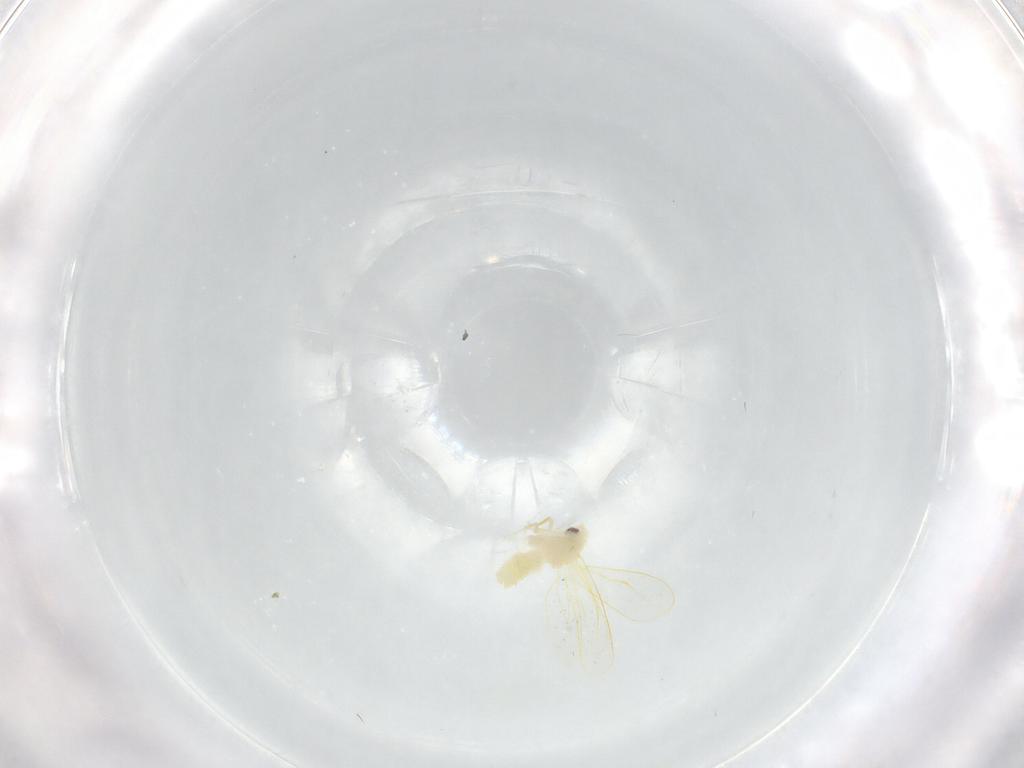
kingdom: Animalia
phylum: Arthropoda
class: Insecta
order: Hemiptera
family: Aleyrodidae
